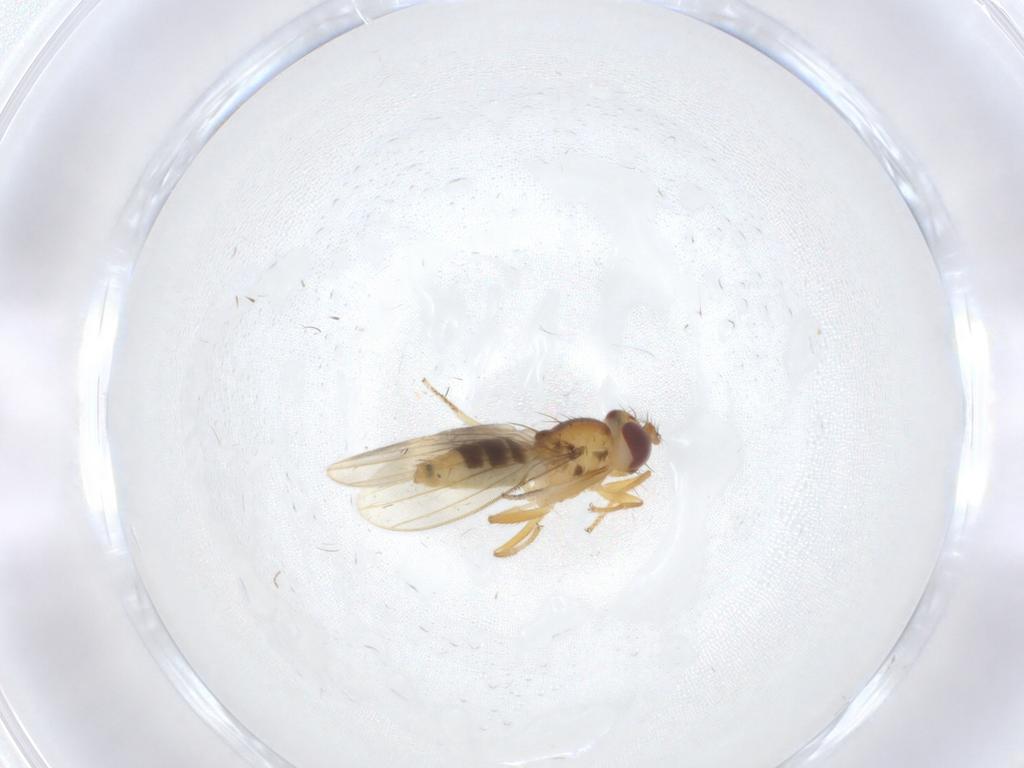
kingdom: Animalia
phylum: Arthropoda
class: Insecta
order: Diptera
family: Periscelididae
